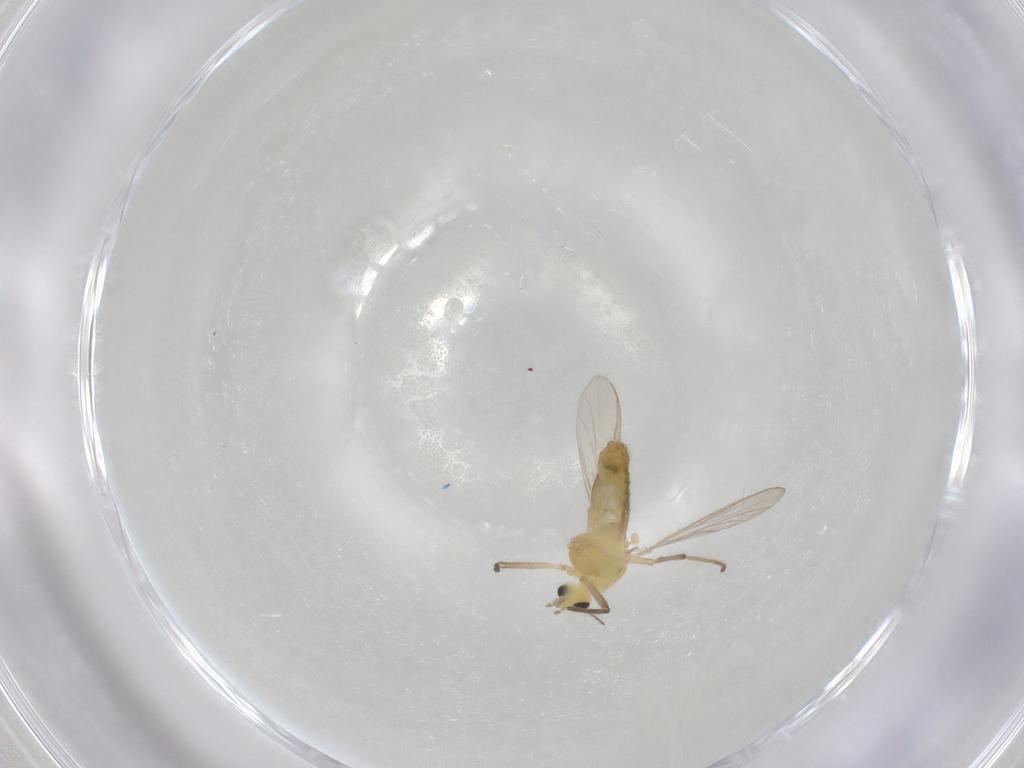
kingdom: Animalia
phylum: Arthropoda
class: Insecta
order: Diptera
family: Chironomidae
